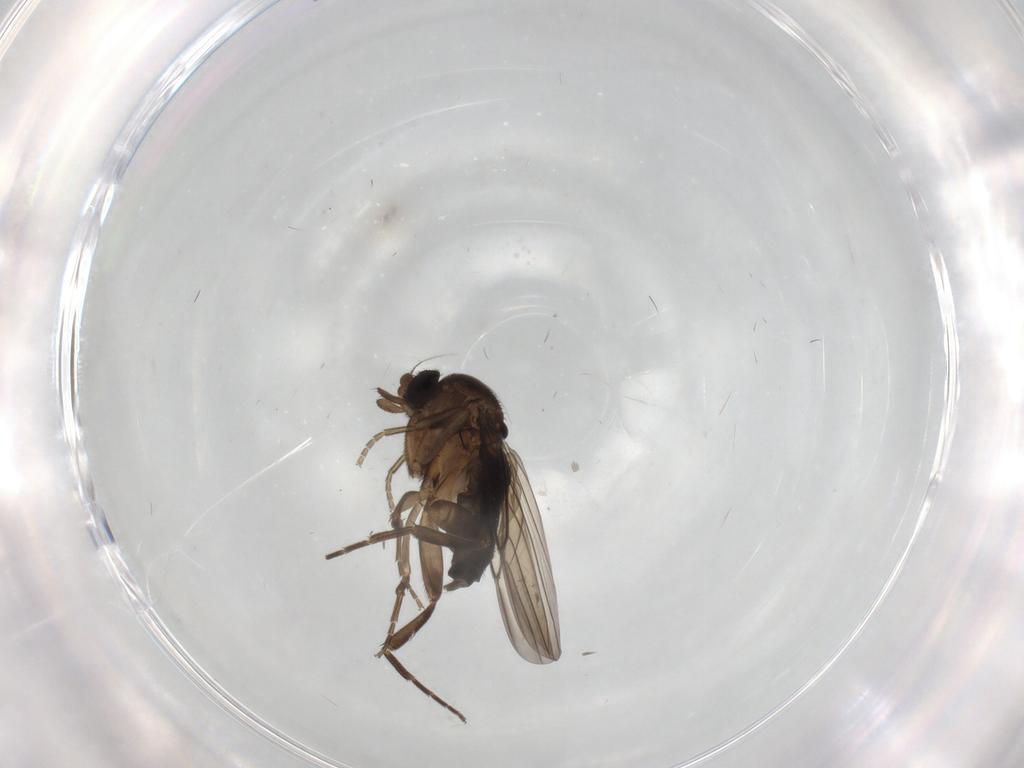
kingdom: Animalia
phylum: Arthropoda
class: Insecta
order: Diptera
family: Phoridae
